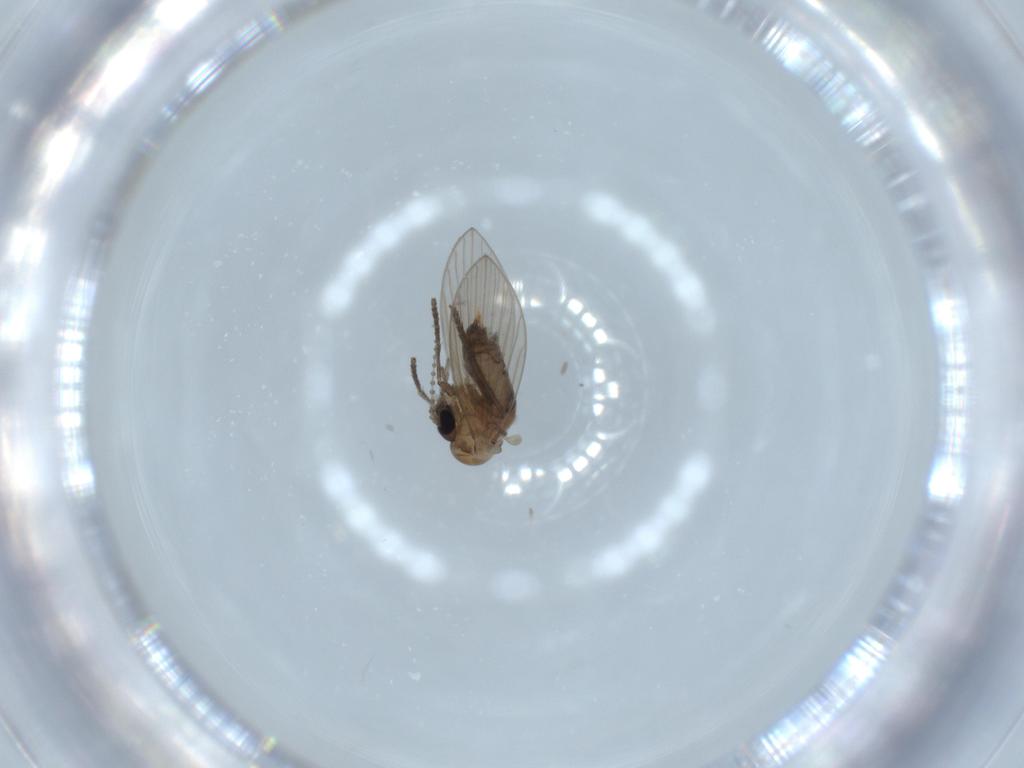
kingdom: Animalia
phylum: Arthropoda
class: Insecta
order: Diptera
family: Psychodidae
